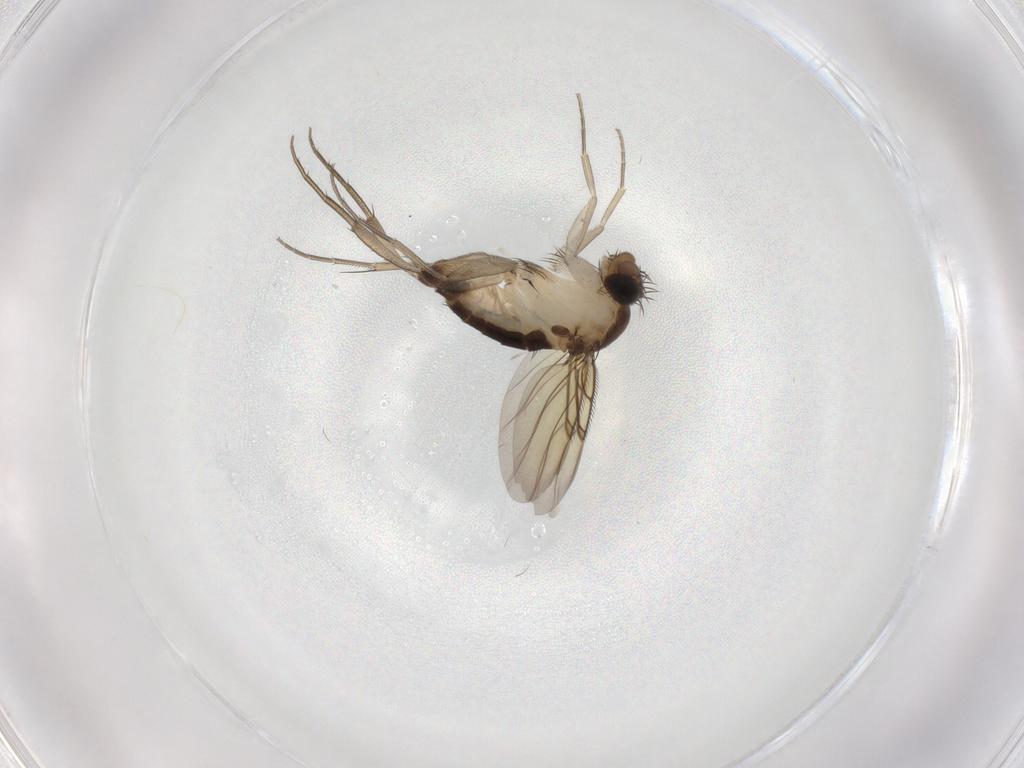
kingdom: Animalia
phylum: Arthropoda
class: Insecta
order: Diptera
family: Phoridae
